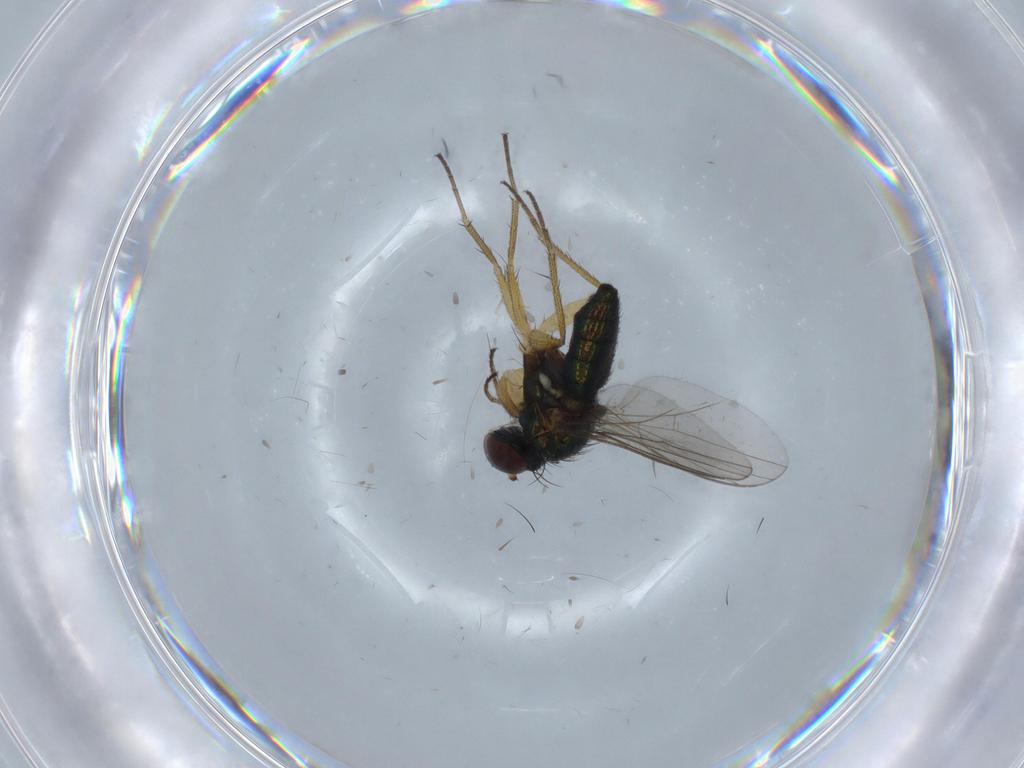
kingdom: Animalia
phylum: Arthropoda
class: Insecta
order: Diptera
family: Dolichopodidae
